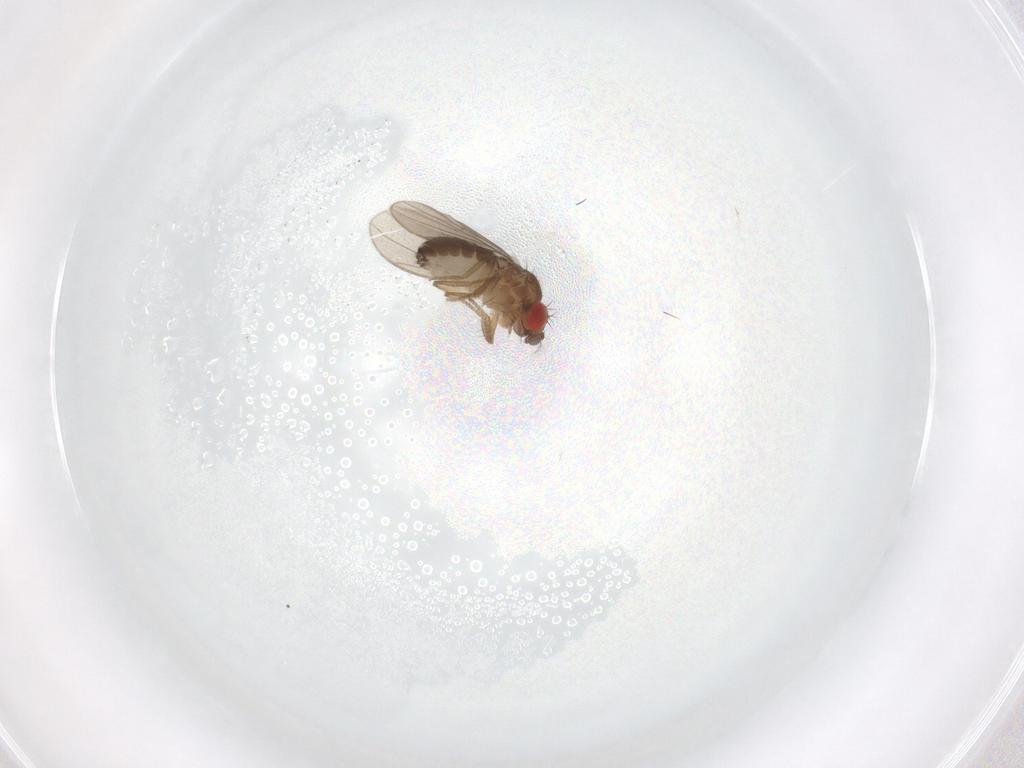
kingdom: Animalia
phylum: Arthropoda
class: Insecta
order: Diptera
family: Drosophilidae
